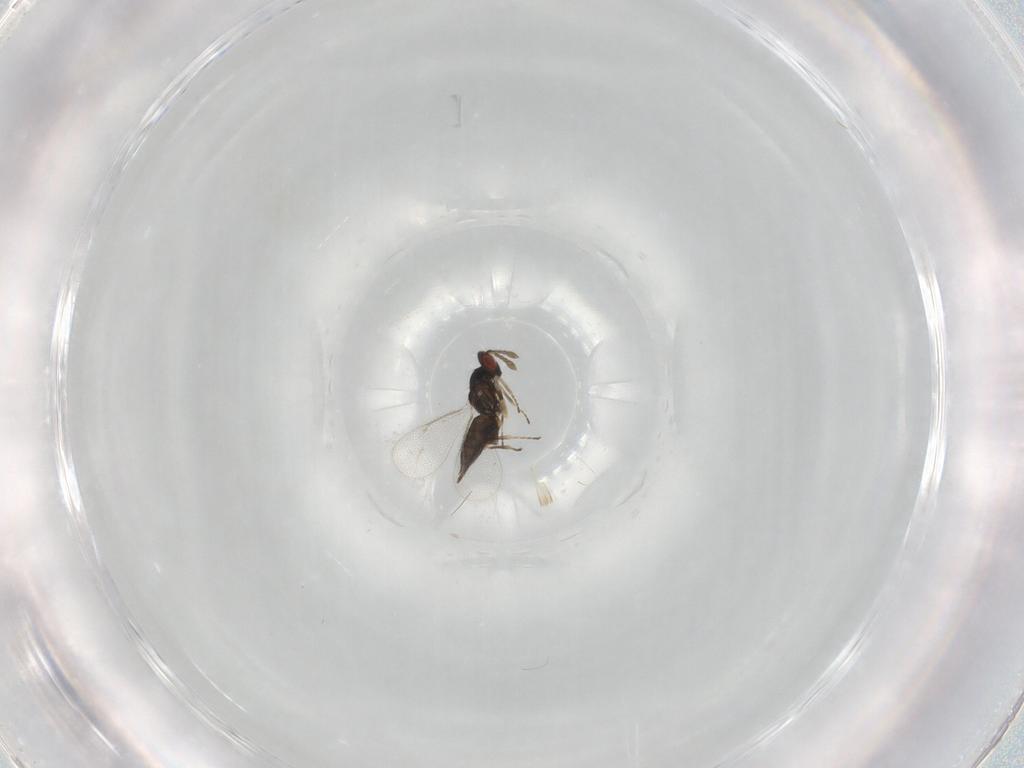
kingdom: Animalia
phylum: Arthropoda
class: Insecta
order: Hymenoptera
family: Eulophidae
